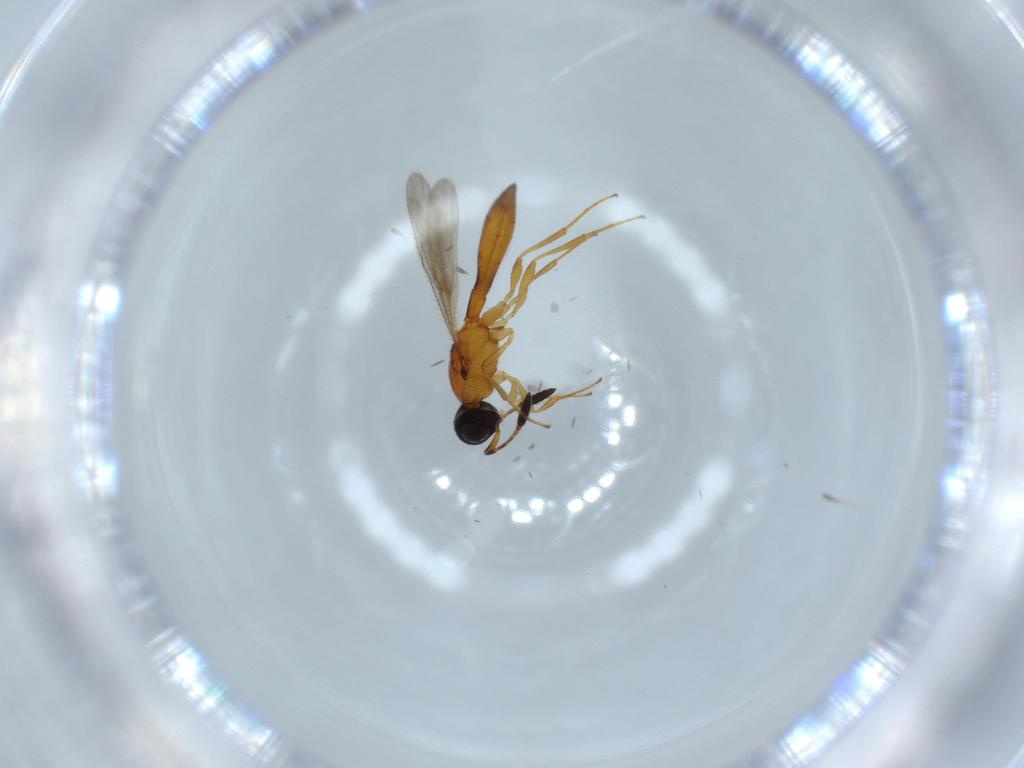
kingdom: Animalia
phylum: Arthropoda
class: Insecta
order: Hymenoptera
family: Scelionidae
